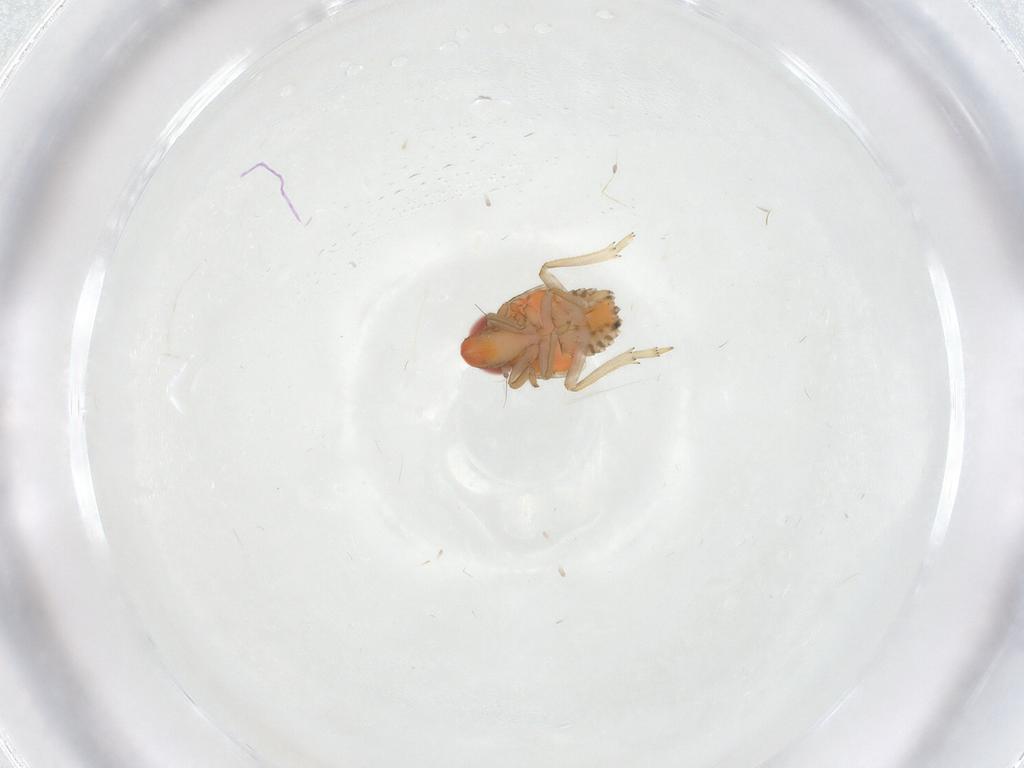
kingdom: Animalia
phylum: Arthropoda
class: Insecta
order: Hemiptera
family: Fulgoroidea_incertae_sedis
